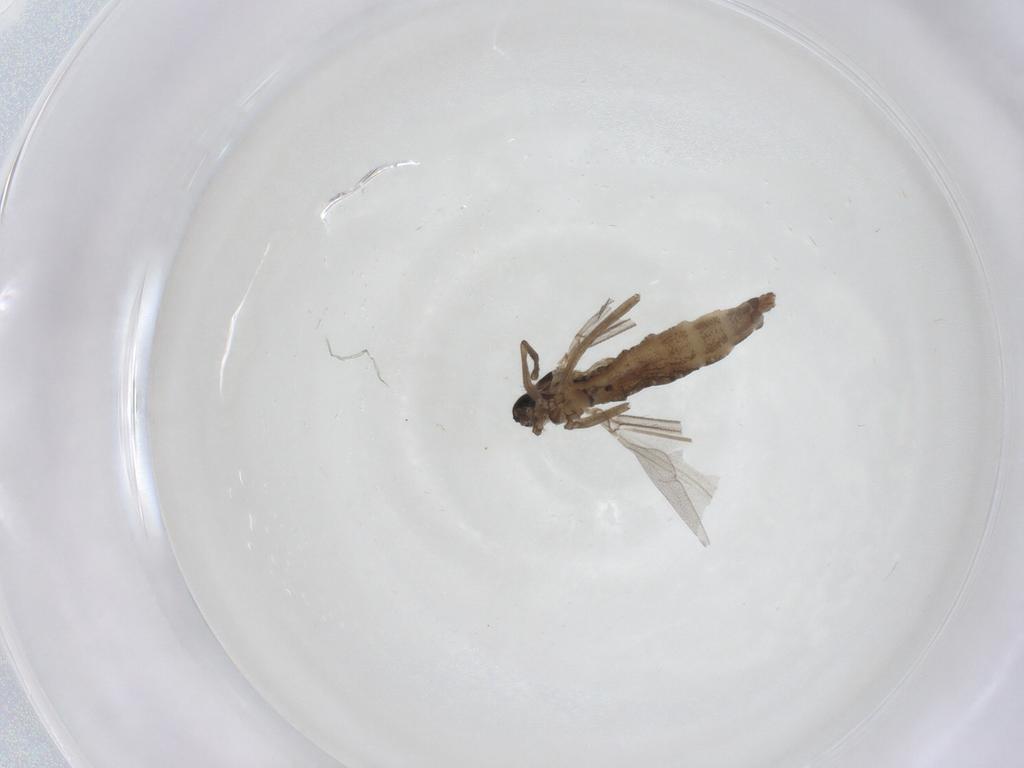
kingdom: Animalia
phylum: Arthropoda
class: Insecta
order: Diptera
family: Cecidomyiidae
